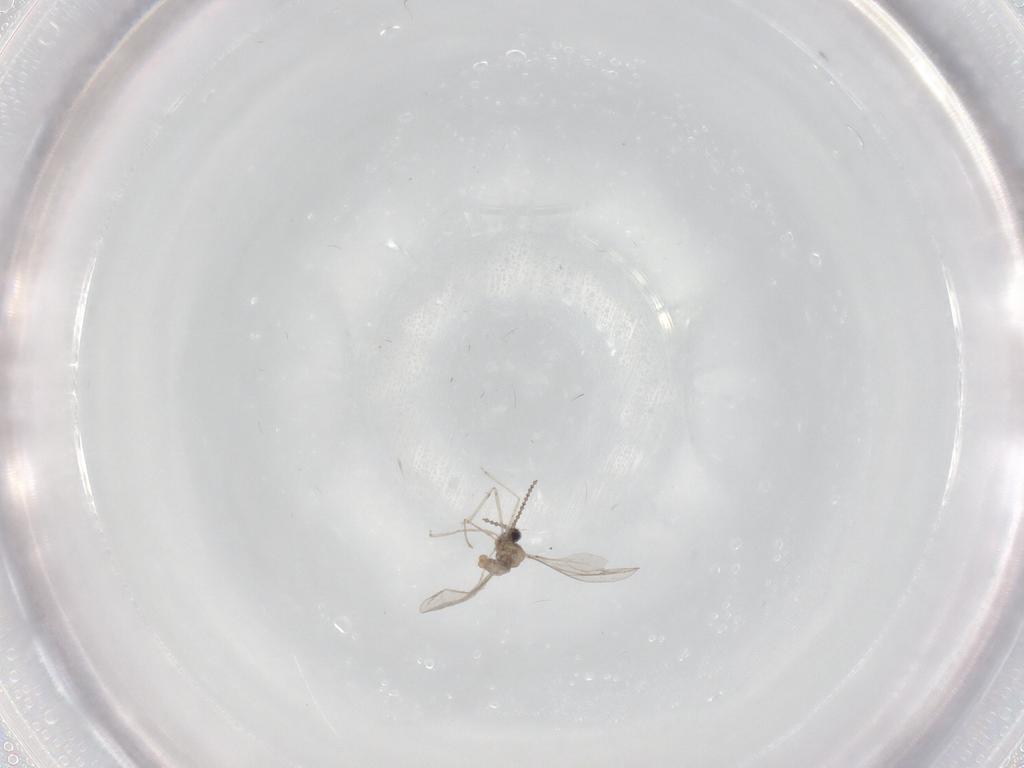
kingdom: Animalia
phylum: Arthropoda
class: Insecta
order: Diptera
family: Cecidomyiidae
